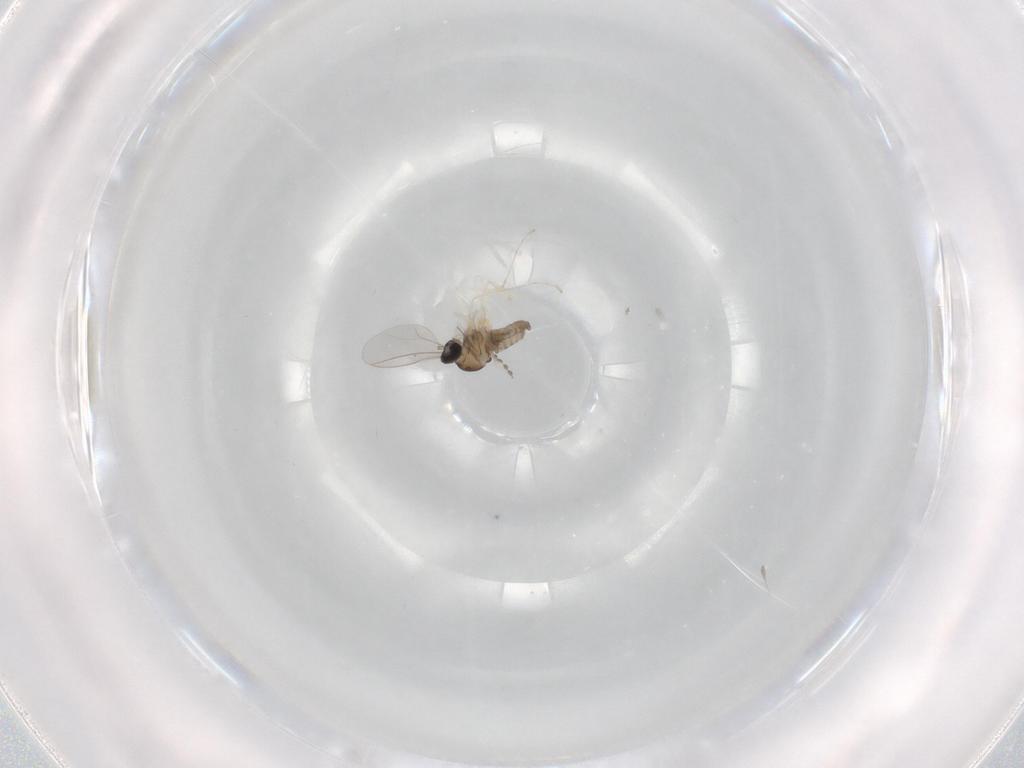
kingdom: Animalia
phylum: Arthropoda
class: Insecta
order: Diptera
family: Cecidomyiidae
